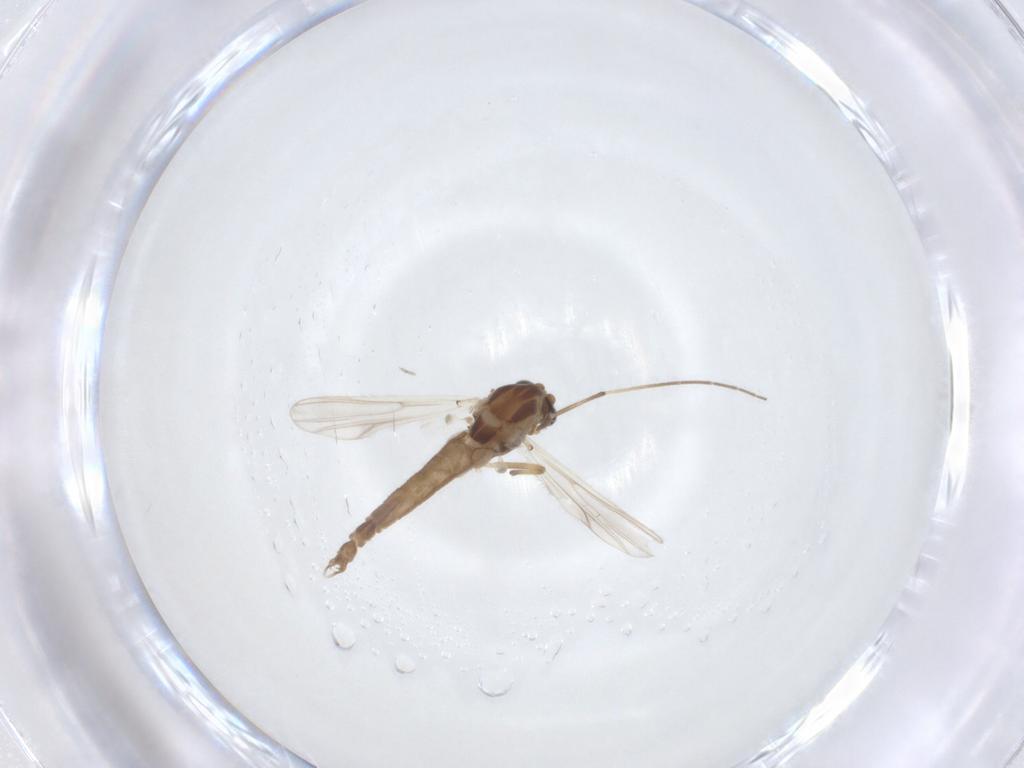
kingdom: Animalia
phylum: Arthropoda
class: Insecta
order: Diptera
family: Chironomidae
